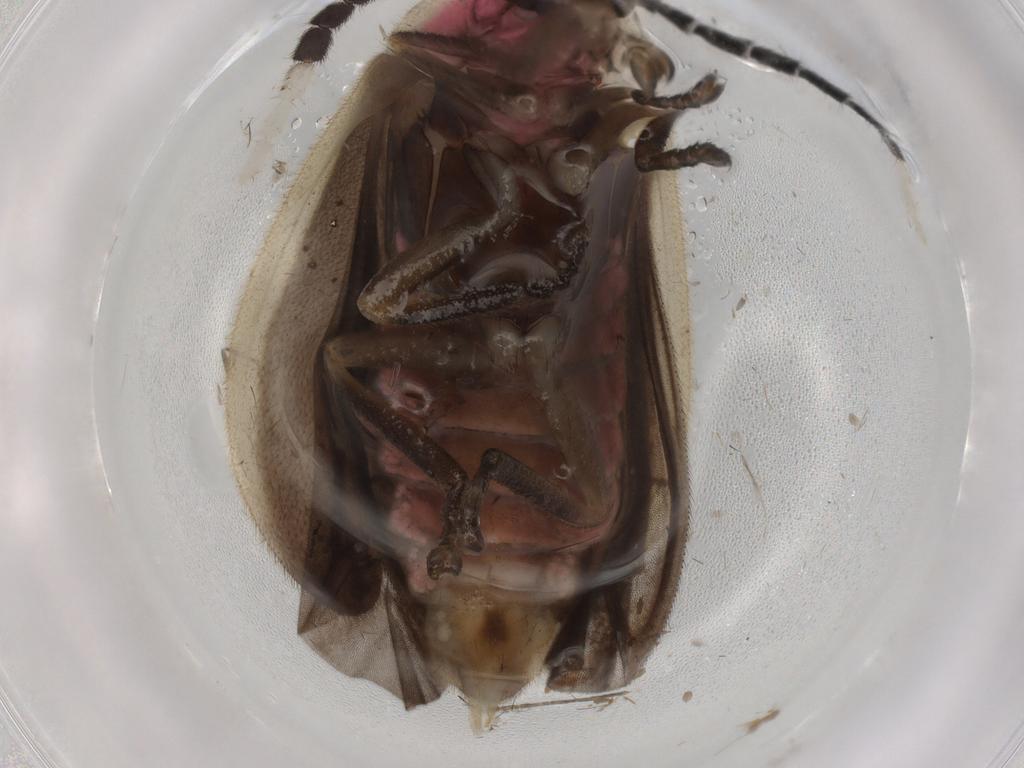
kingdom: Animalia
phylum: Arthropoda
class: Insecta
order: Coleoptera
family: Lampyridae
